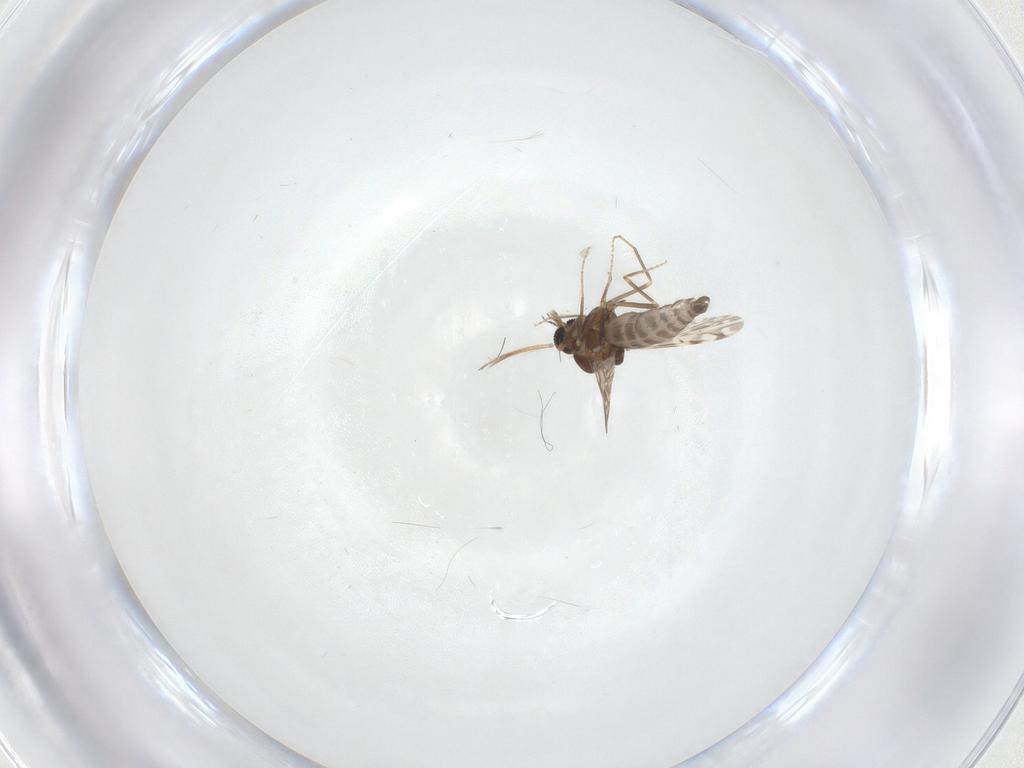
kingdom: Animalia
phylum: Arthropoda
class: Insecta
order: Diptera
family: Ceratopogonidae
